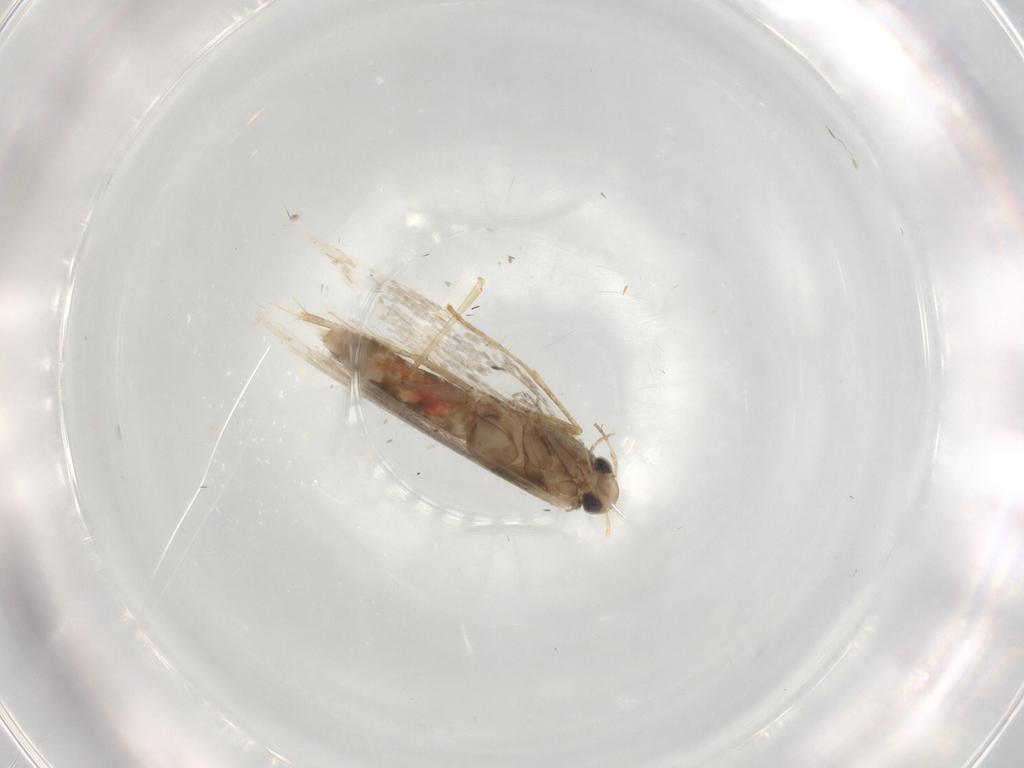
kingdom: Animalia
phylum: Arthropoda
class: Insecta
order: Lepidoptera
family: Gracillariidae
